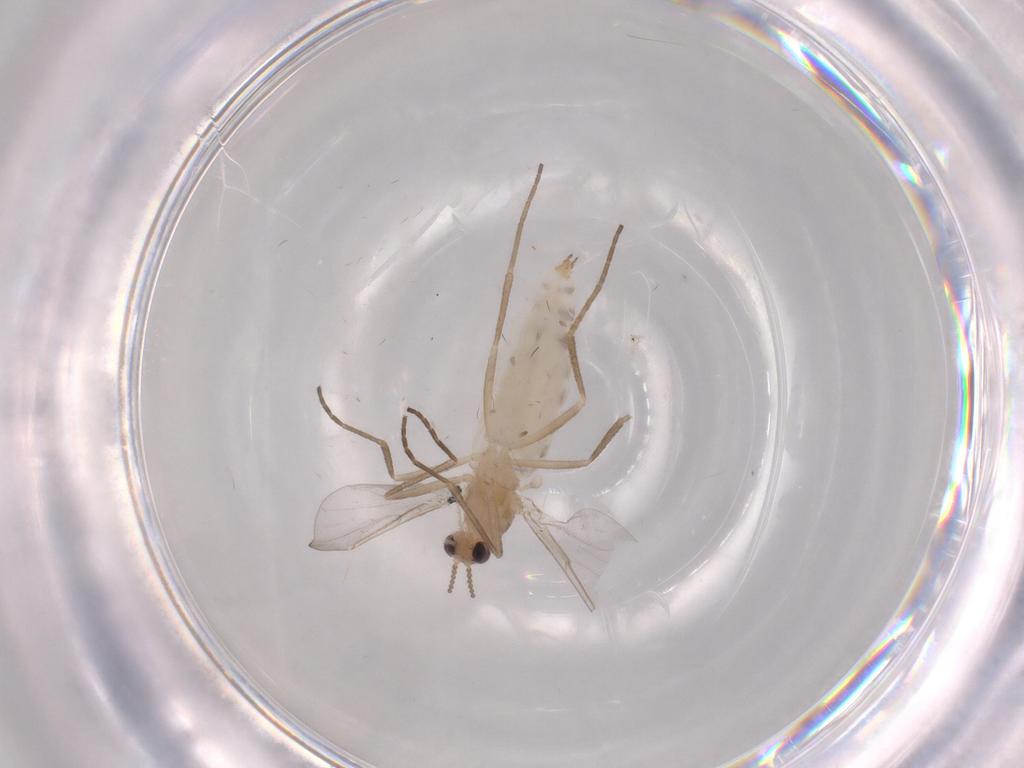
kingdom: Animalia
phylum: Arthropoda
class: Insecta
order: Diptera
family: Cecidomyiidae
